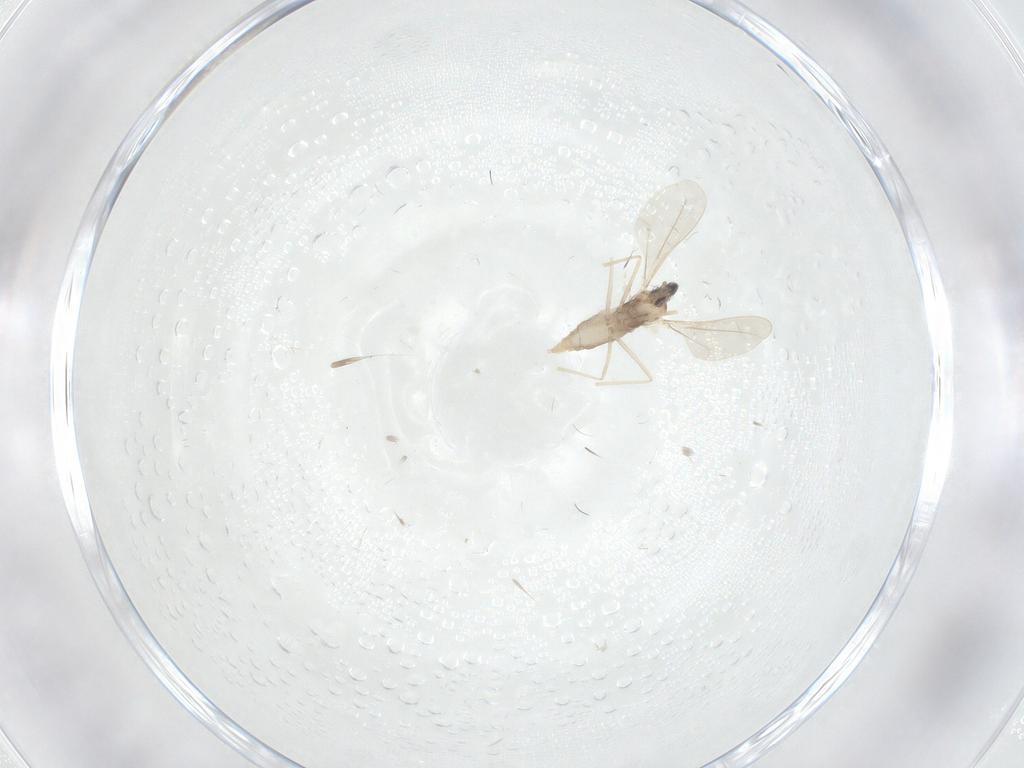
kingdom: Animalia
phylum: Arthropoda
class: Insecta
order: Diptera
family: Cecidomyiidae
